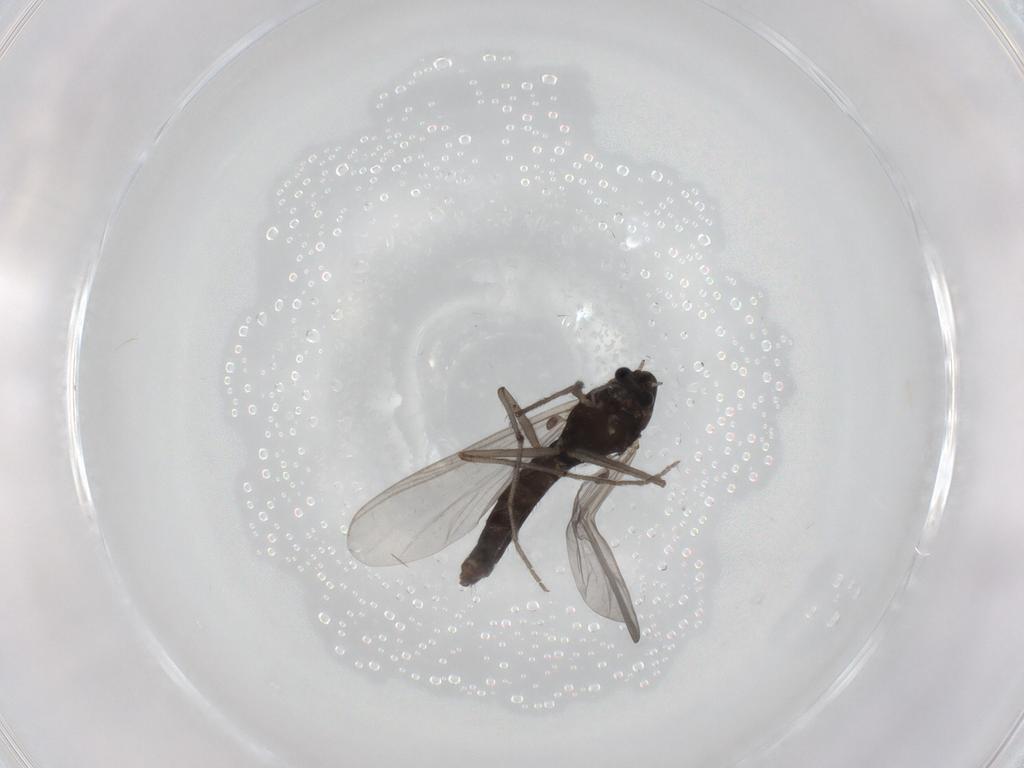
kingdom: Animalia
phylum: Arthropoda
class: Insecta
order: Diptera
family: Chironomidae
